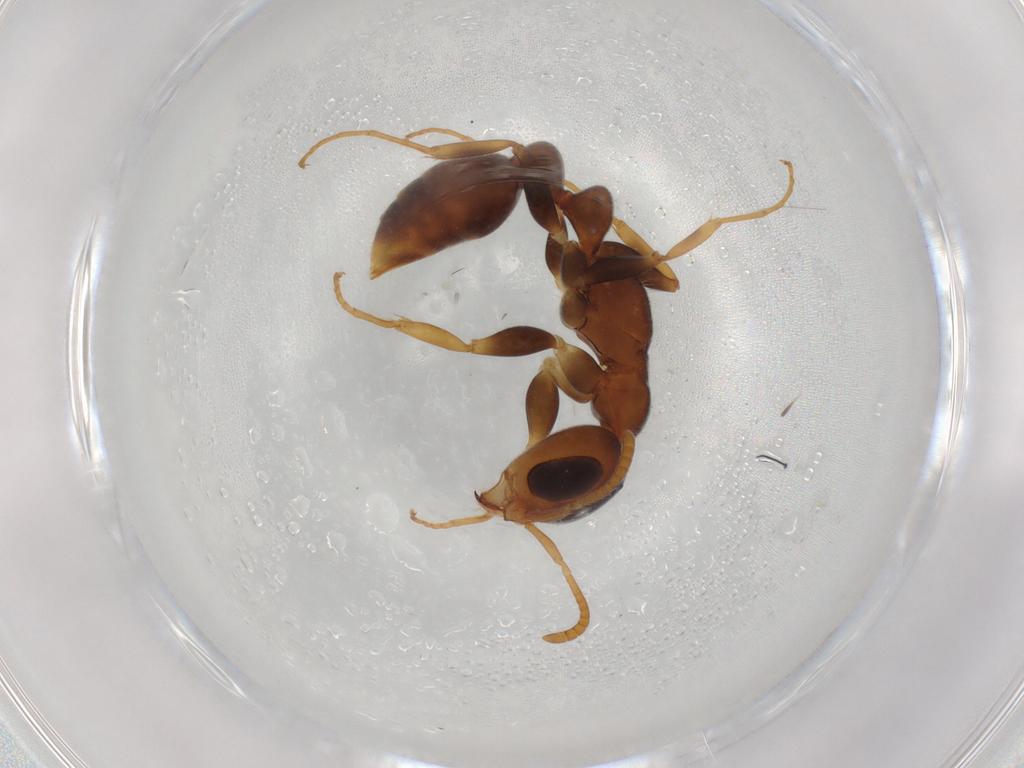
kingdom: Animalia
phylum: Arthropoda
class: Insecta
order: Hymenoptera
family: Formicidae
